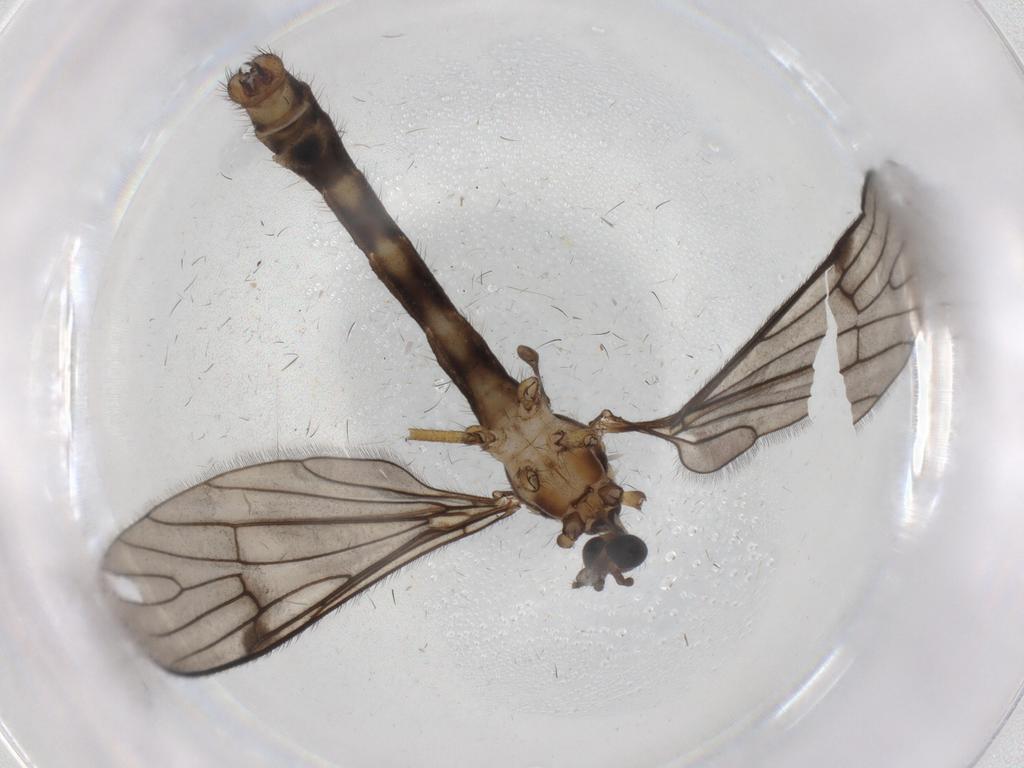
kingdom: Animalia
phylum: Arthropoda
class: Insecta
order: Diptera
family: Limoniidae
